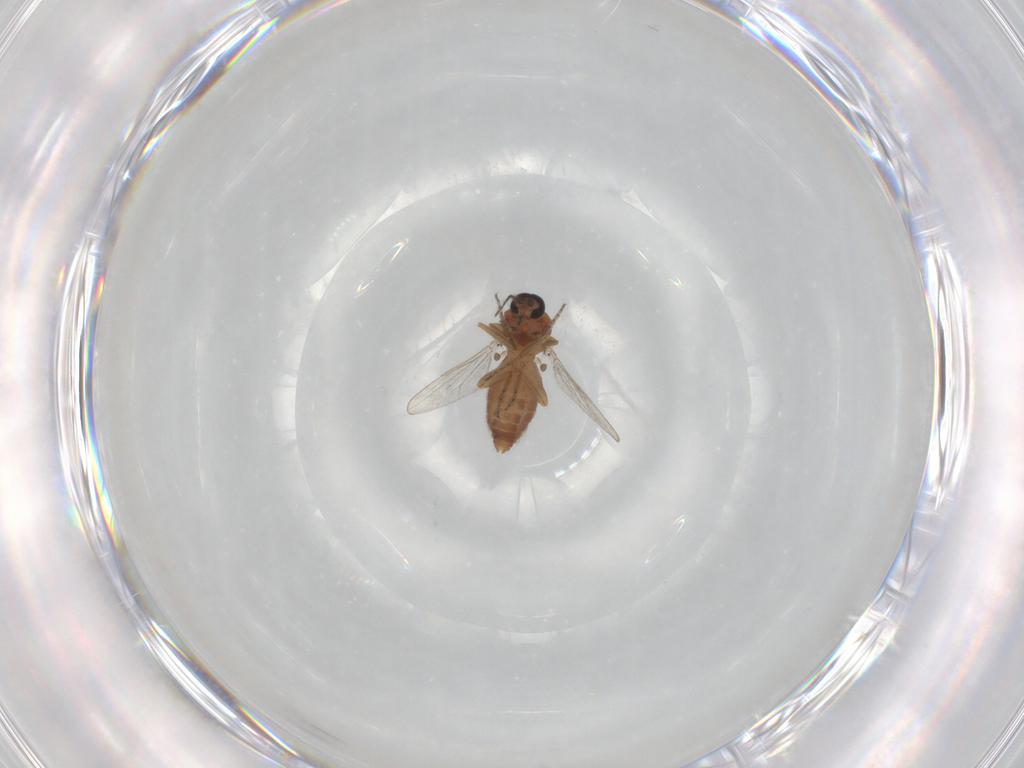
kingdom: Animalia
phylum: Arthropoda
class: Insecta
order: Diptera
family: Ceratopogonidae
